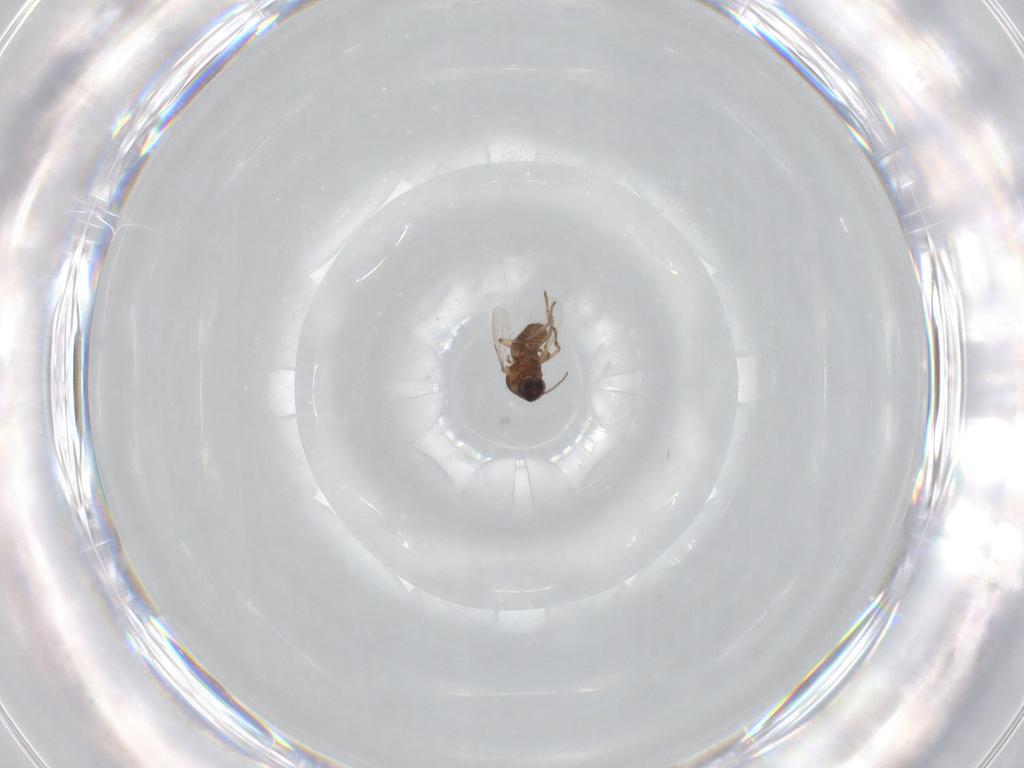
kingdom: Animalia
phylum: Arthropoda
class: Insecta
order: Diptera
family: Ceratopogonidae
